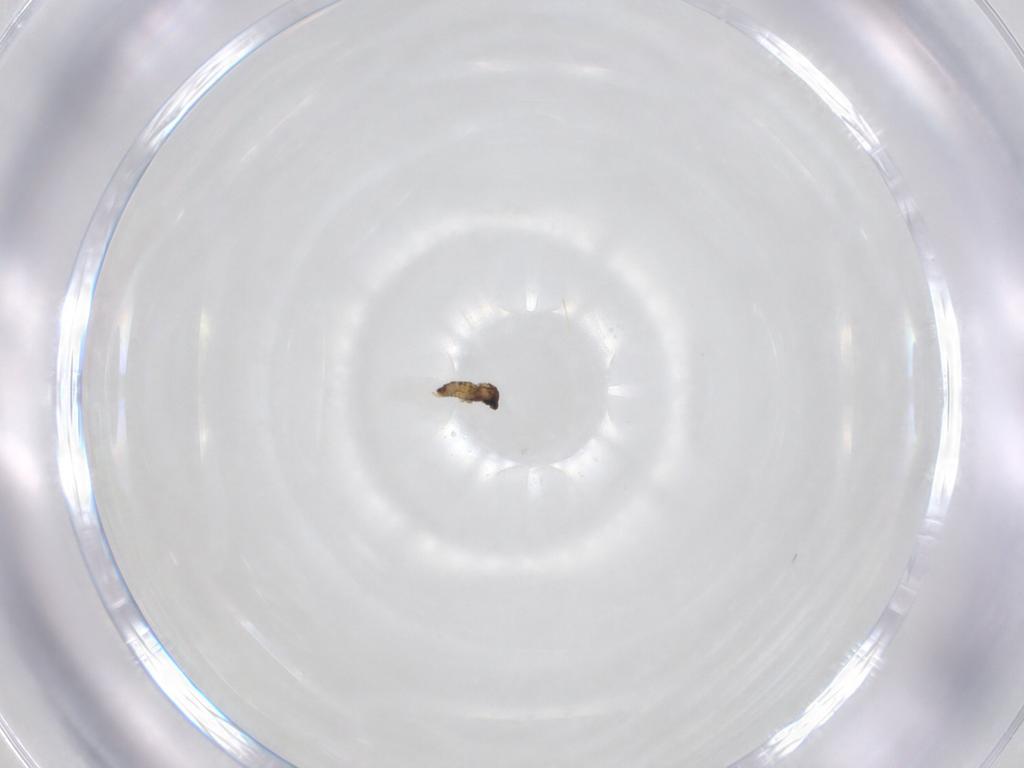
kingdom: Animalia
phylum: Arthropoda
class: Insecta
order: Diptera
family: Cecidomyiidae
